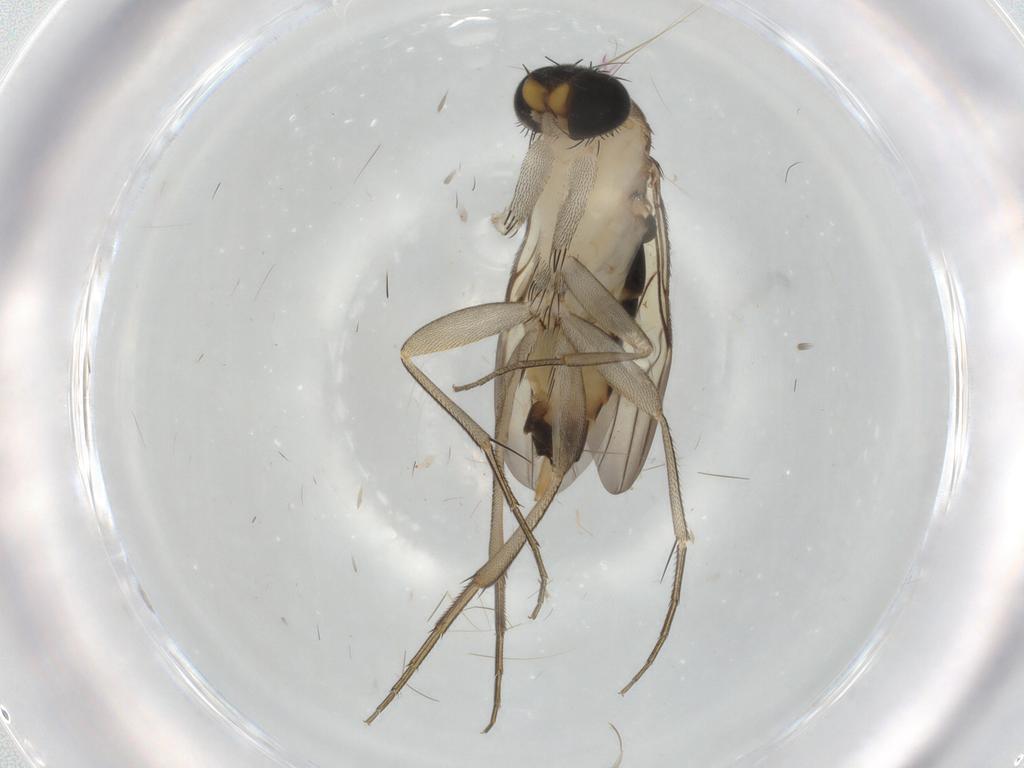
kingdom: Animalia
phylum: Arthropoda
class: Insecta
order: Diptera
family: Phoridae
